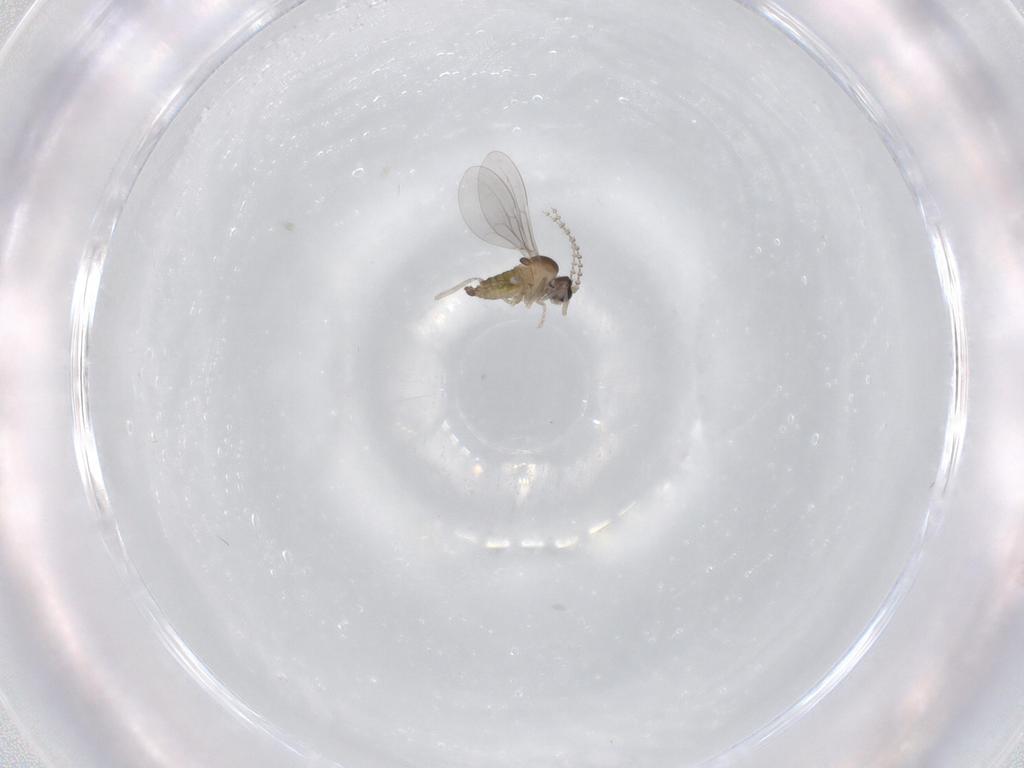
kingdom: Animalia
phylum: Arthropoda
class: Insecta
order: Diptera
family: Cecidomyiidae
